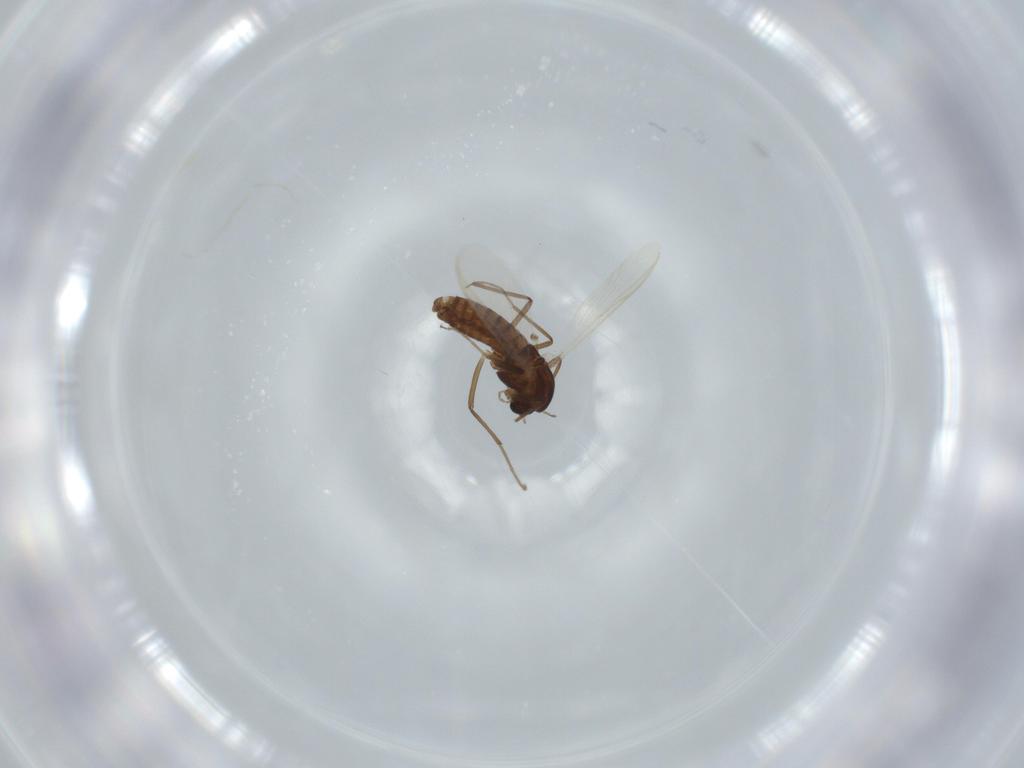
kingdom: Animalia
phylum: Arthropoda
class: Insecta
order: Diptera
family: Chironomidae
